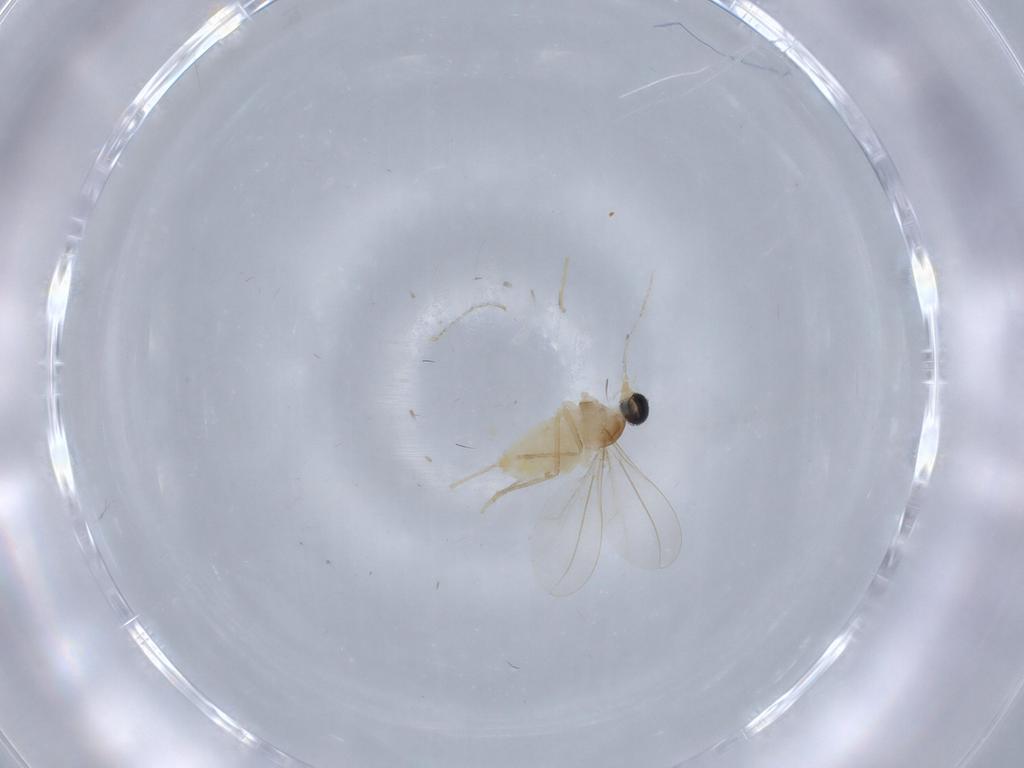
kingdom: Animalia
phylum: Arthropoda
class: Insecta
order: Diptera
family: Cecidomyiidae
